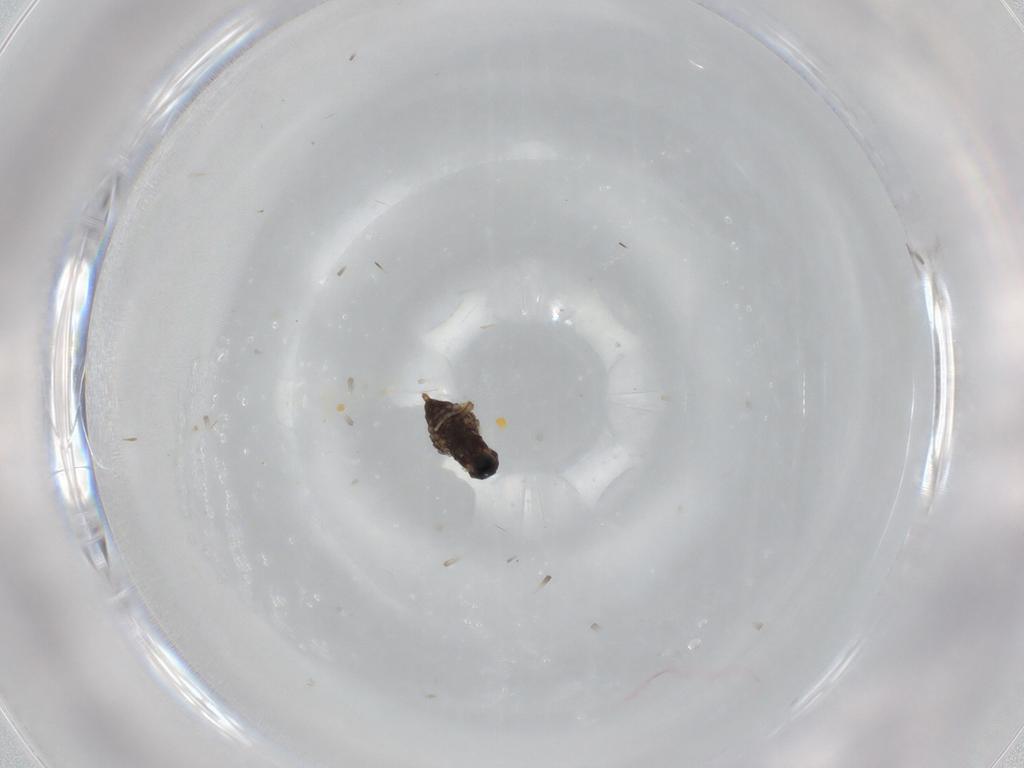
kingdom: Animalia
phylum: Arthropoda
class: Insecta
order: Diptera
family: Cecidomyiidae
